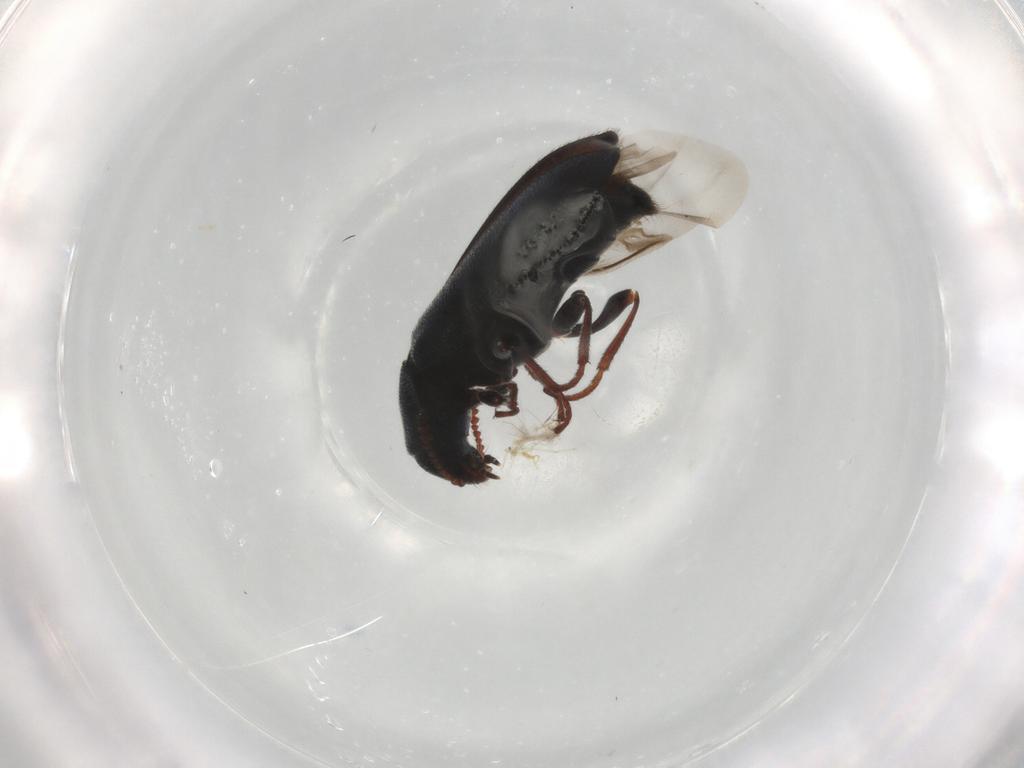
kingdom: Animalia
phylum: Arthropoda
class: Insecta
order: Coleoptera
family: Melyridae
